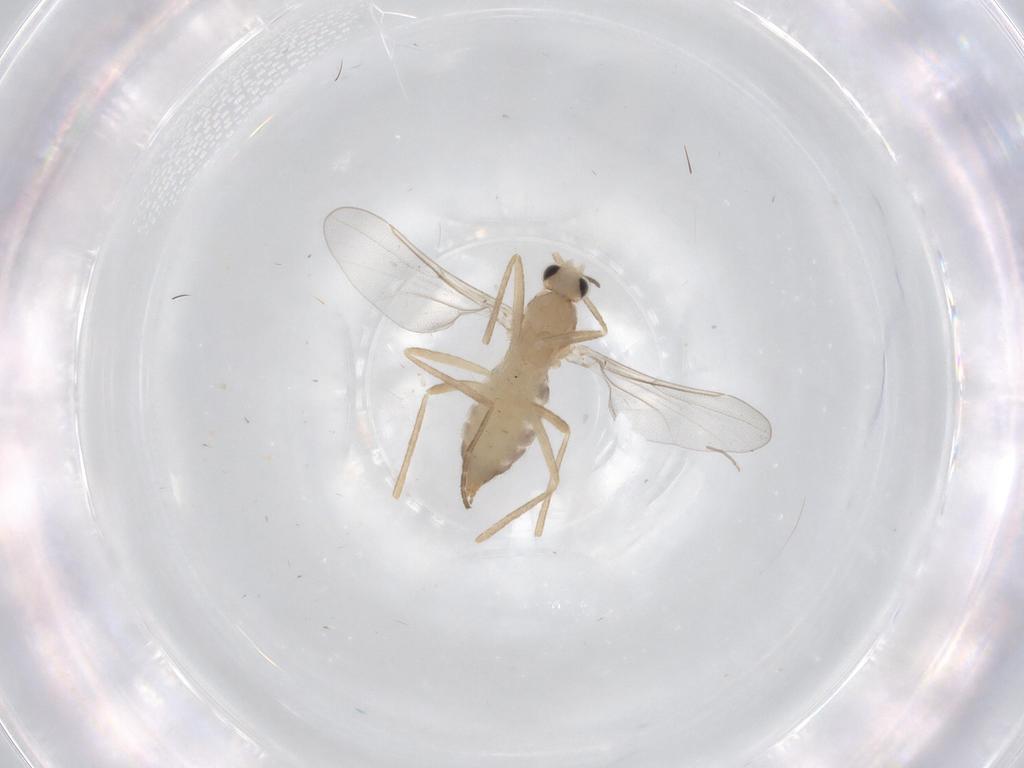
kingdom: Animalia
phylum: Arthropoda
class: Insecta
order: Diptera
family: Cecidomyiidae
